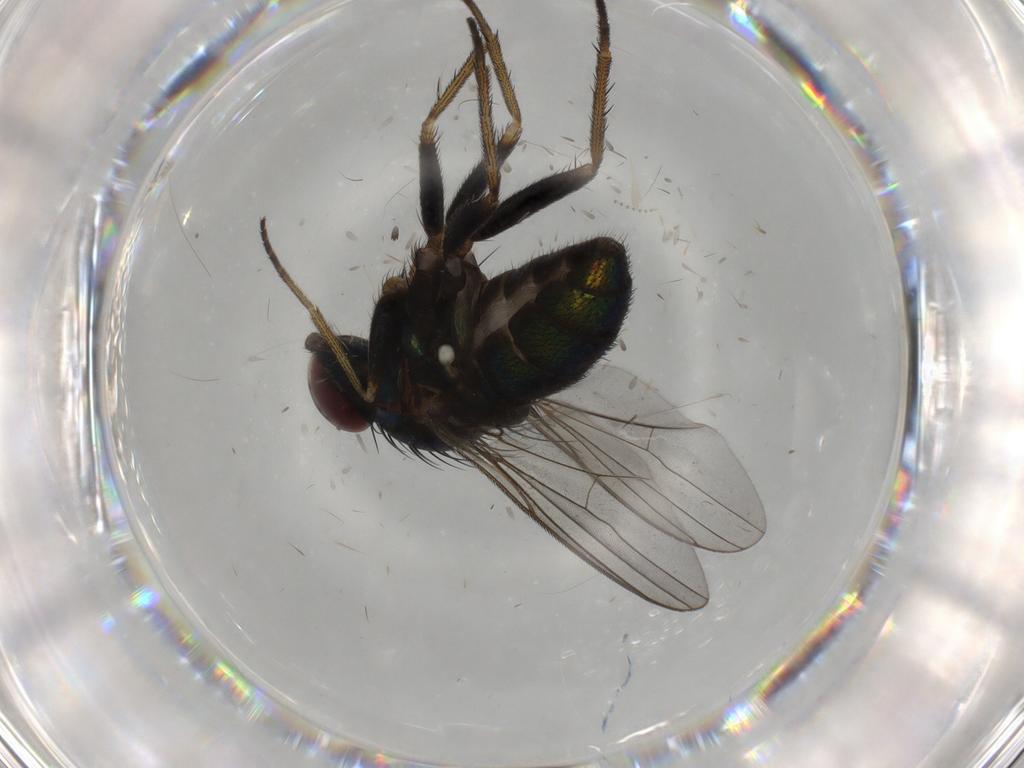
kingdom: Animalia
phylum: Arthropoda
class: Insecta
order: Diptera
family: Dolichopodidae
